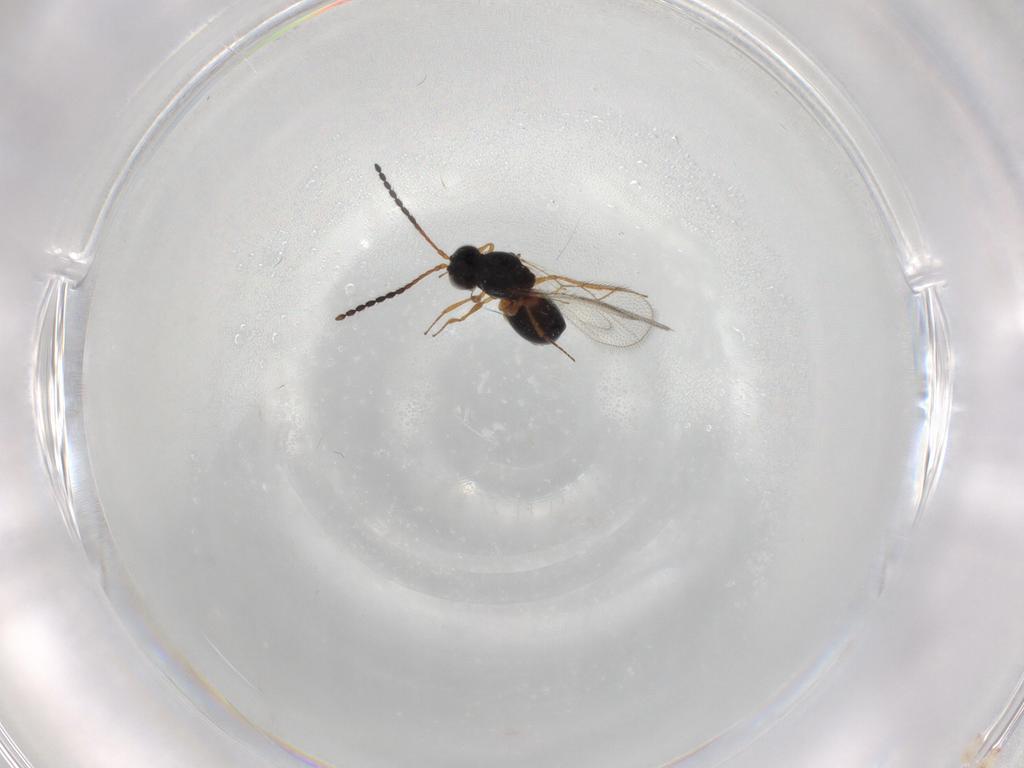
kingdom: Animalia
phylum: Arthropoda
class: Insecta
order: Hymenoptera
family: Figitidae
